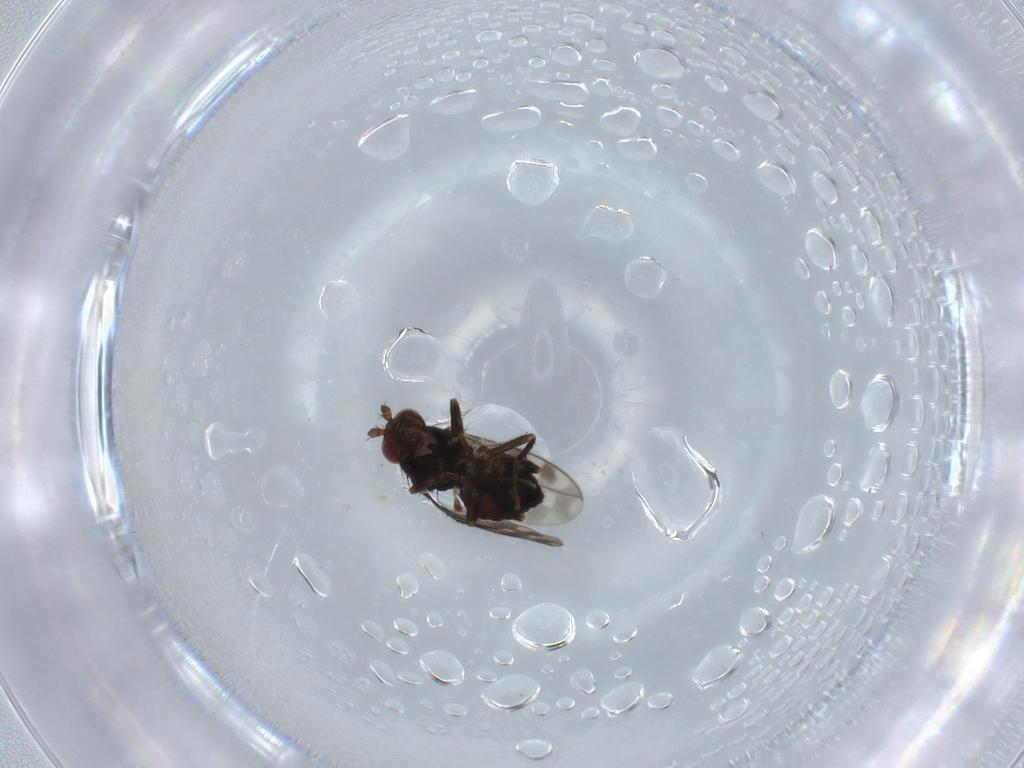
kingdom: Animalia
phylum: Arthropoda
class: Insecta
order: Diptera
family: Sphaeroceridae
